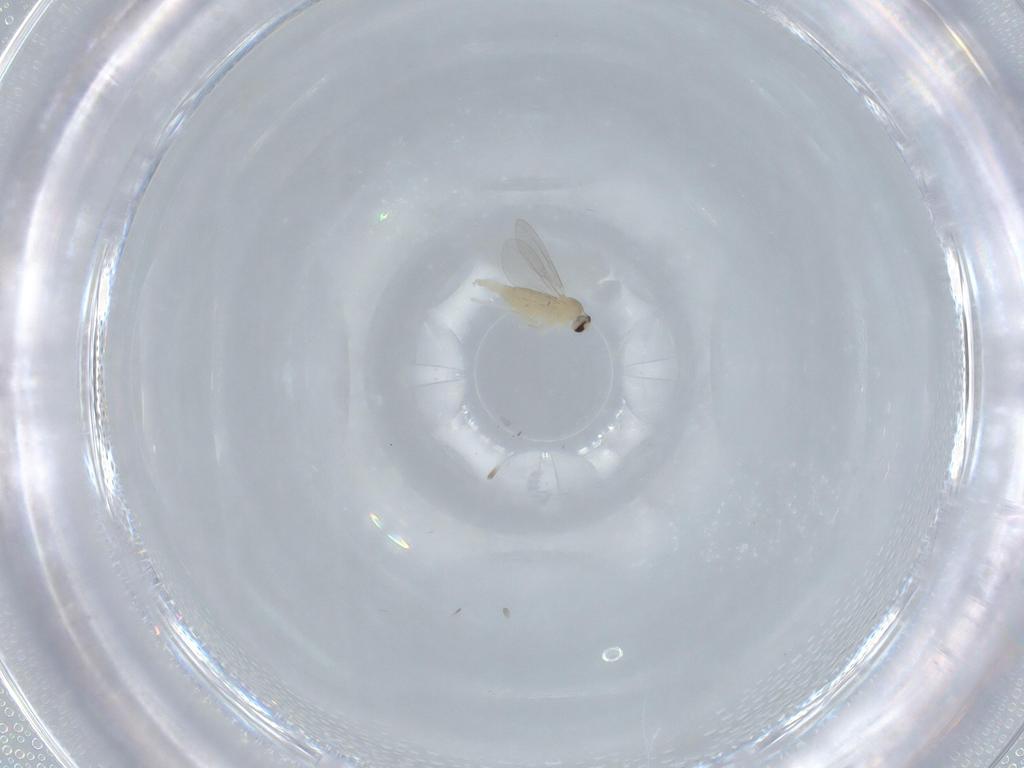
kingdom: Animalia
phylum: Arthropoda
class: Insecta
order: Diptera
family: Cecidomyiidae
